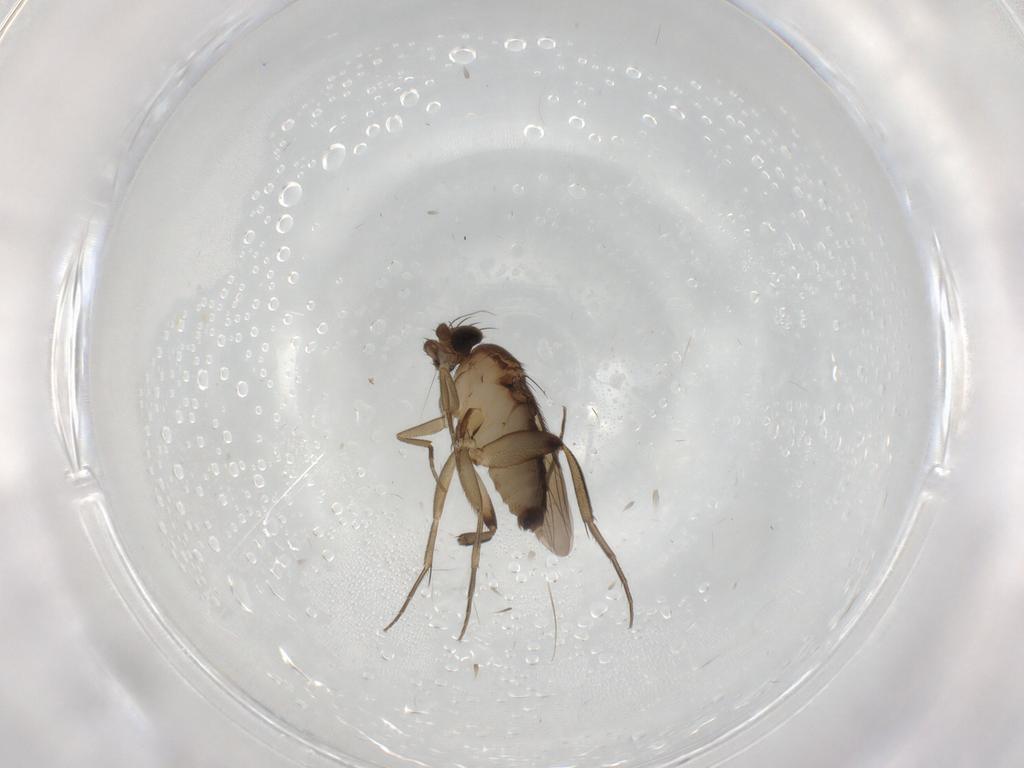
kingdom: Animalia
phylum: Arthropoda
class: Insecta
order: Diptera
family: Phoridae
